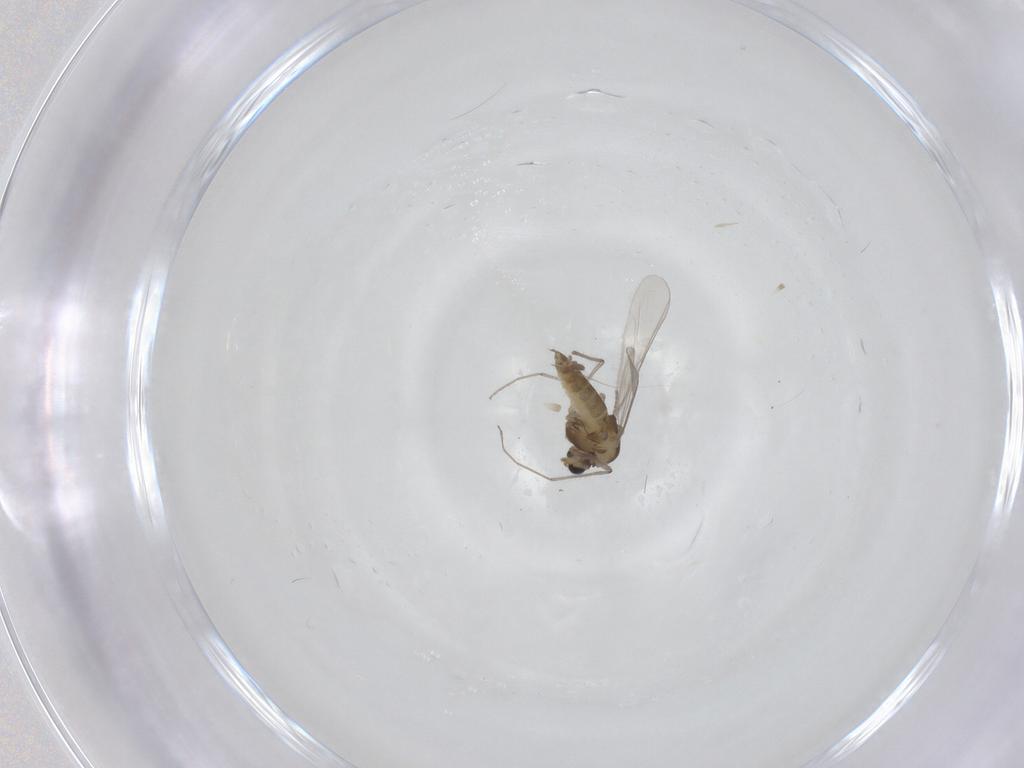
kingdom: Animalia
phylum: Arthropoda
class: Insecta
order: Diptera
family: Chironomidae
